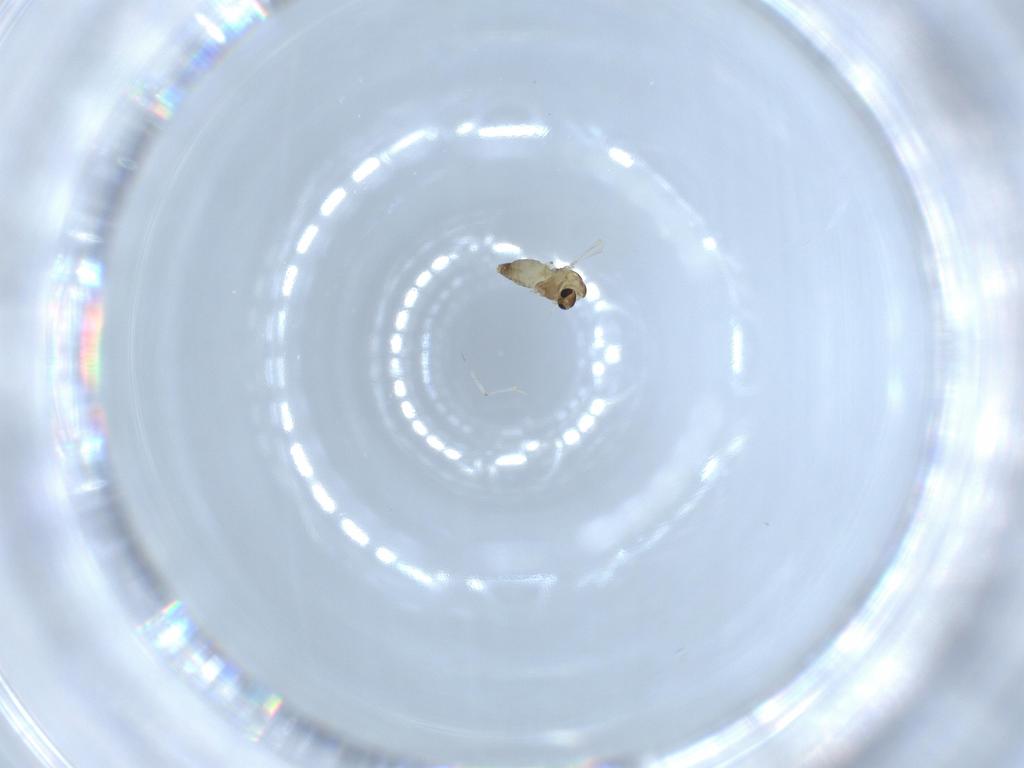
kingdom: Animalia
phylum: Arthropoda
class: Insecta
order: Diptera
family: Chironomidae
